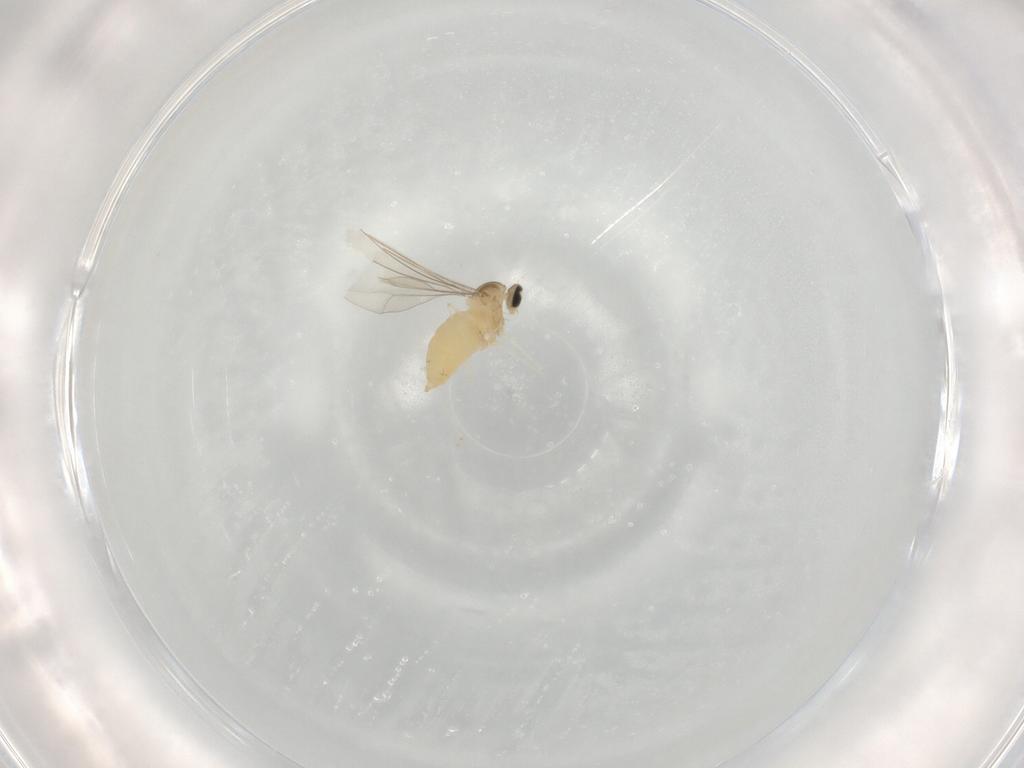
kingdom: Animalia
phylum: Arthropoda
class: Insecta
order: Diptera
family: Cecidomyiidae
